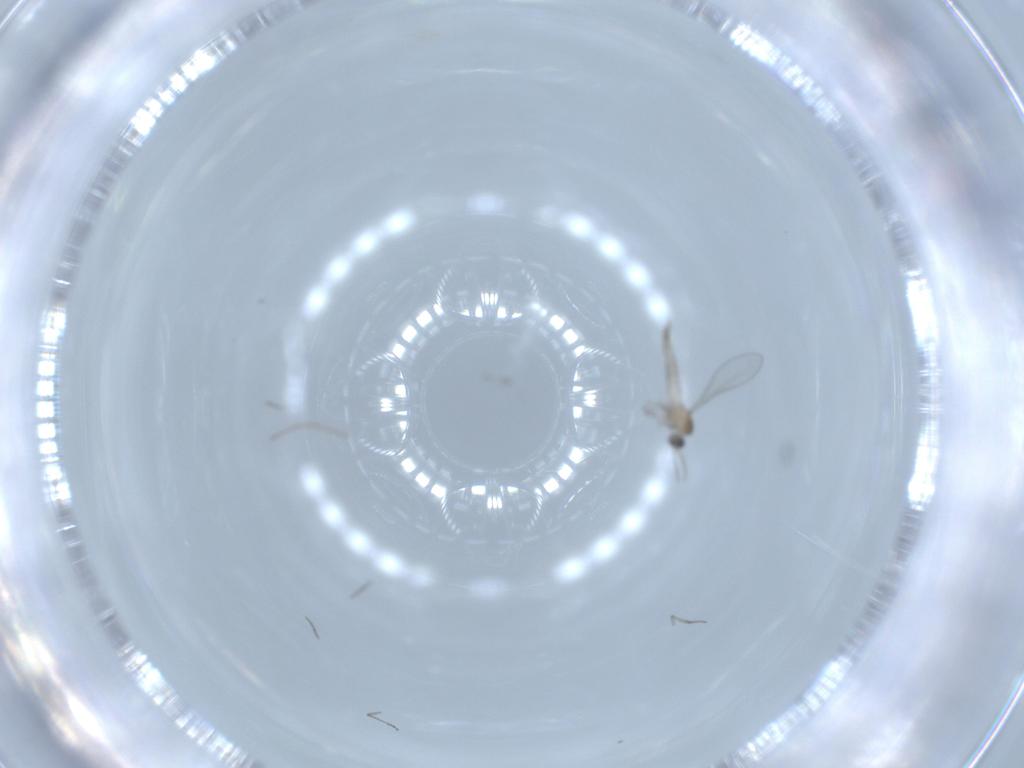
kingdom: Animalia
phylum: Arthropoda
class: Insecta
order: Diptera
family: Cecidomyiidae
